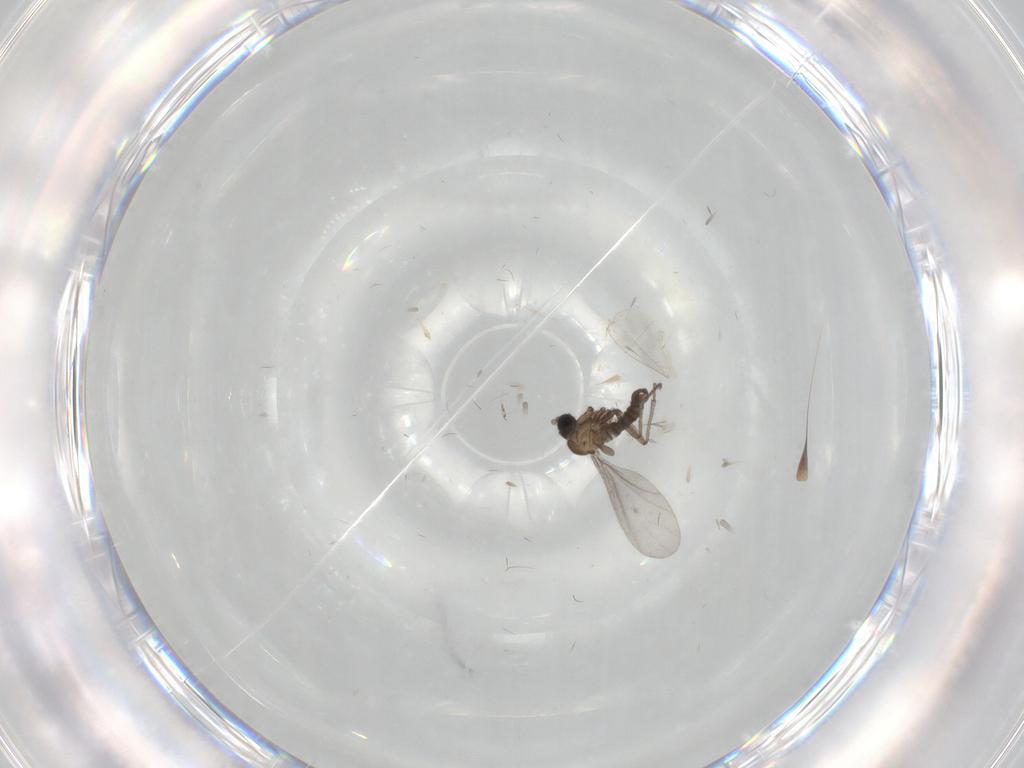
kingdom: Animalia
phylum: Arthropoda
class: Insecta
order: Diptera
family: Sciaridae
